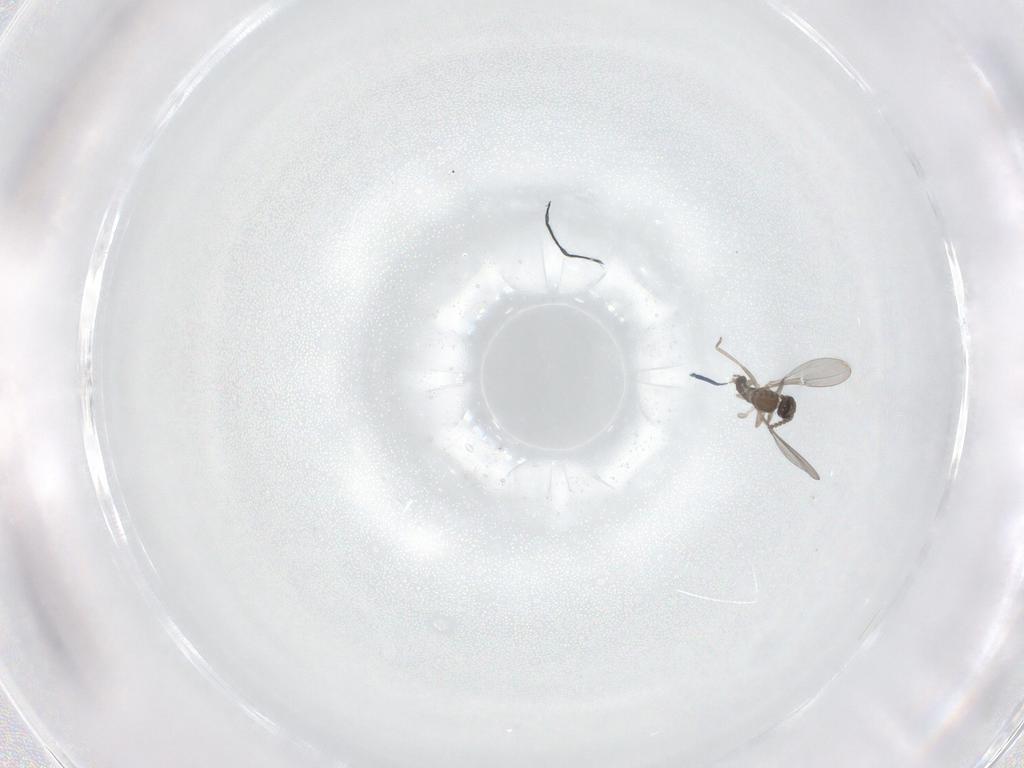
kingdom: Animalia
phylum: Arthropoda
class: Insecta
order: Diptera
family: Cecidomyiidae
